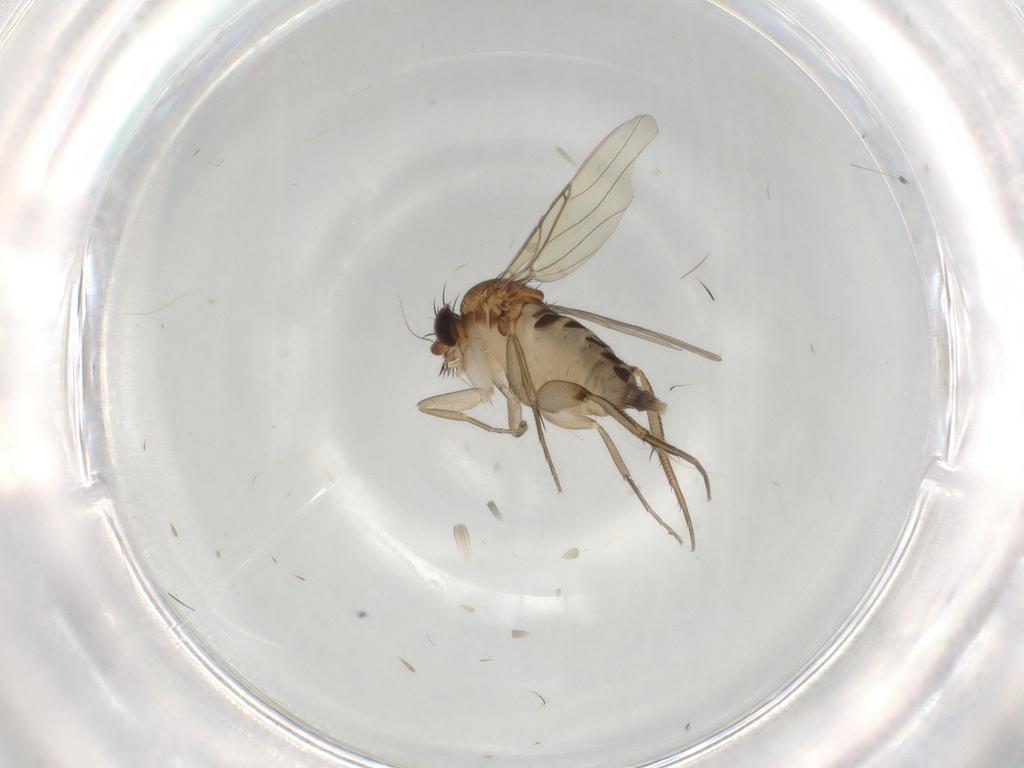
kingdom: Animalia
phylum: Arthropoda
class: Insecta
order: Diptera
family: Phoridae
